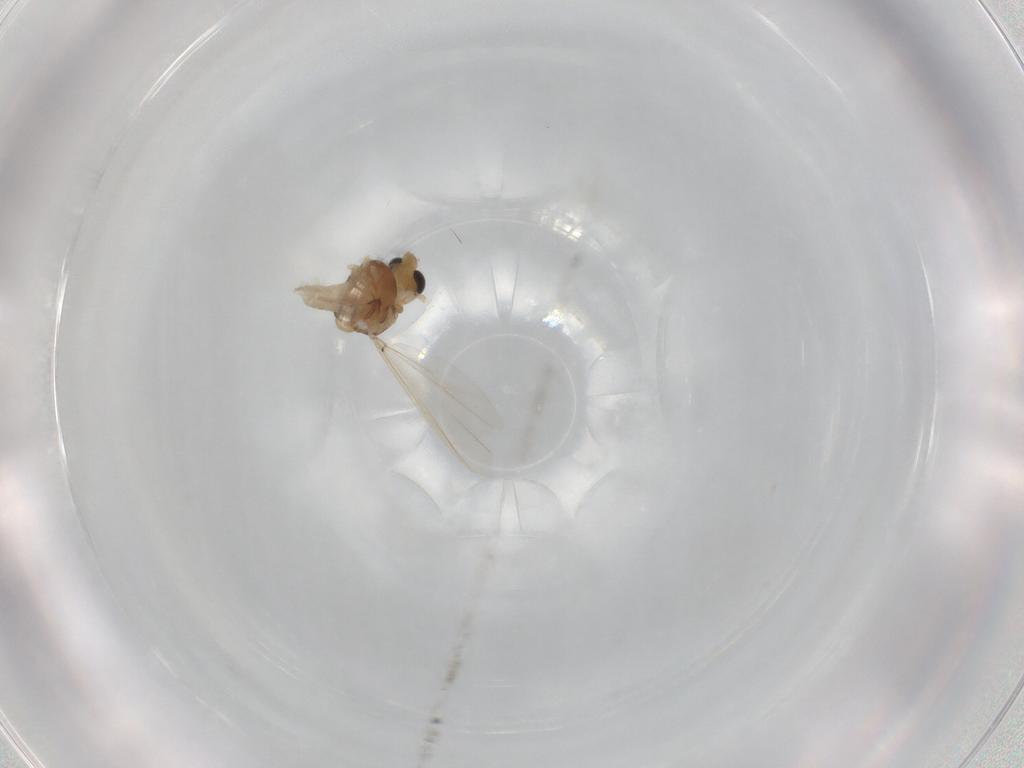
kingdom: Animalia
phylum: Arthropoda
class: Insecta
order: Diptera
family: Chironomidae
